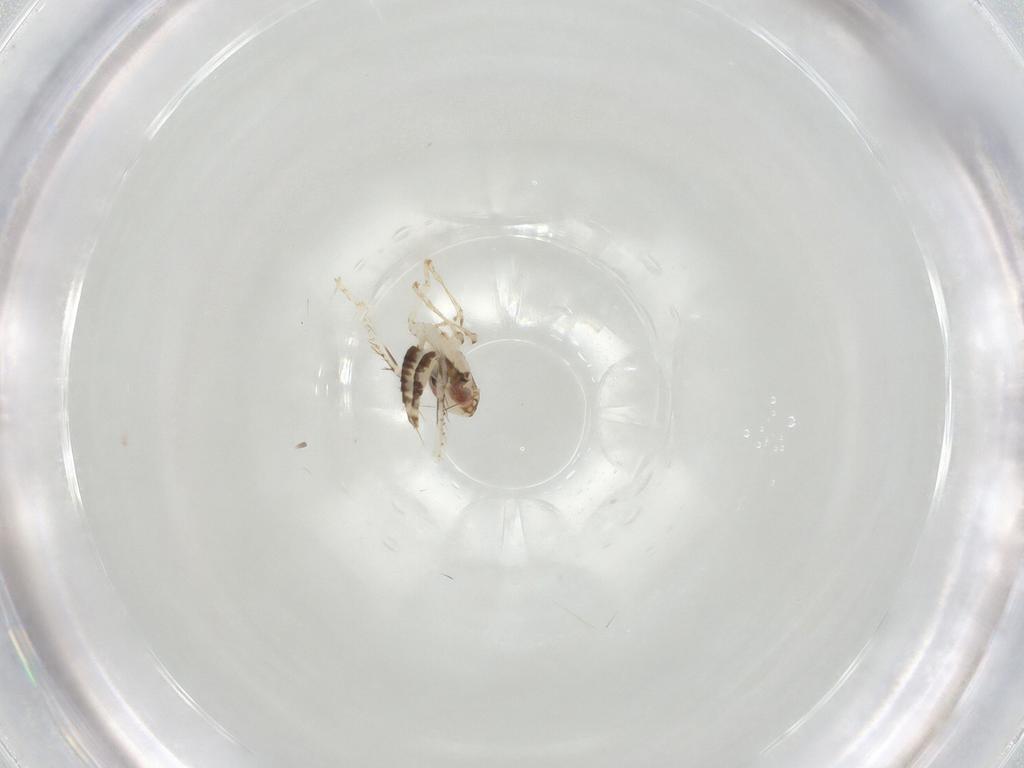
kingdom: Animalia
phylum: Arthropoda
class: Insecta
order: Hemiptera
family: Cicadellidae
